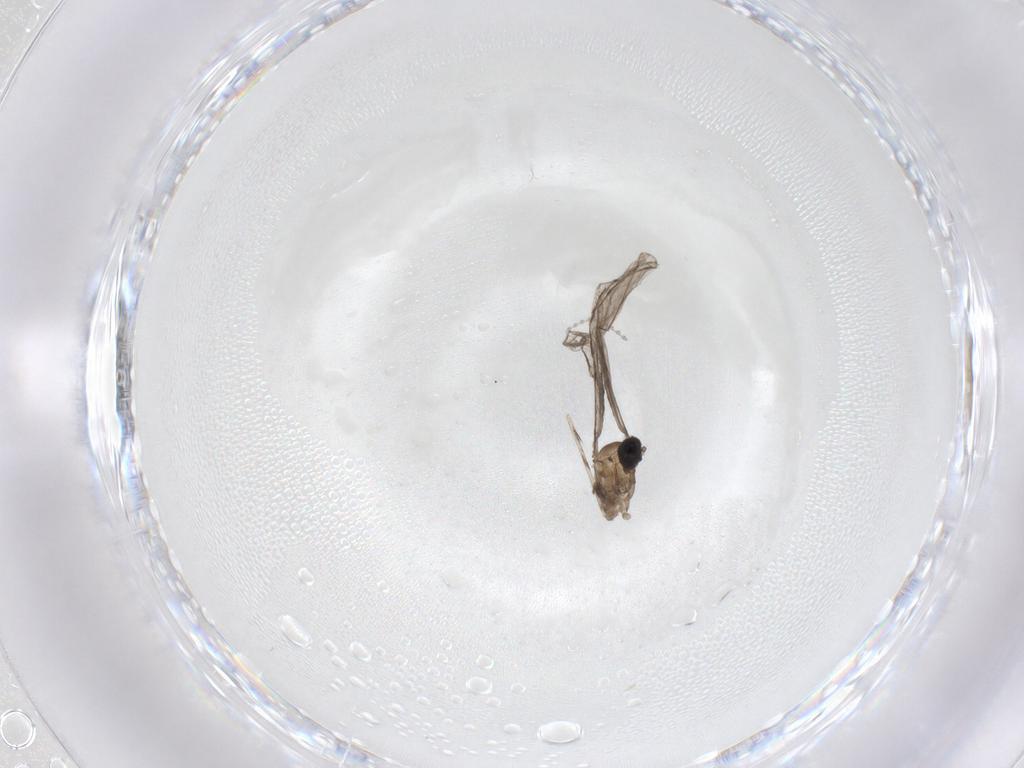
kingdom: Animalia
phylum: Arthropoda
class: Insecta
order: Diptera
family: Cecidomyiidae
